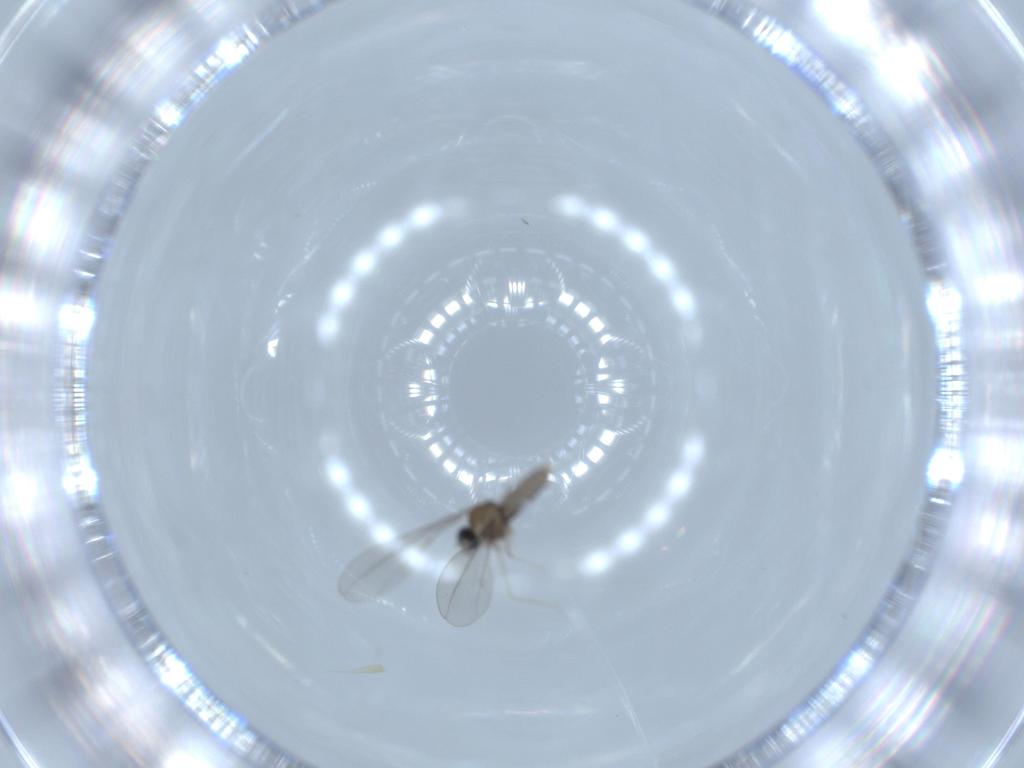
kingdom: Animalia
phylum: Arthropoda
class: Insecta
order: Diptera
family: Cecidomyiidae
